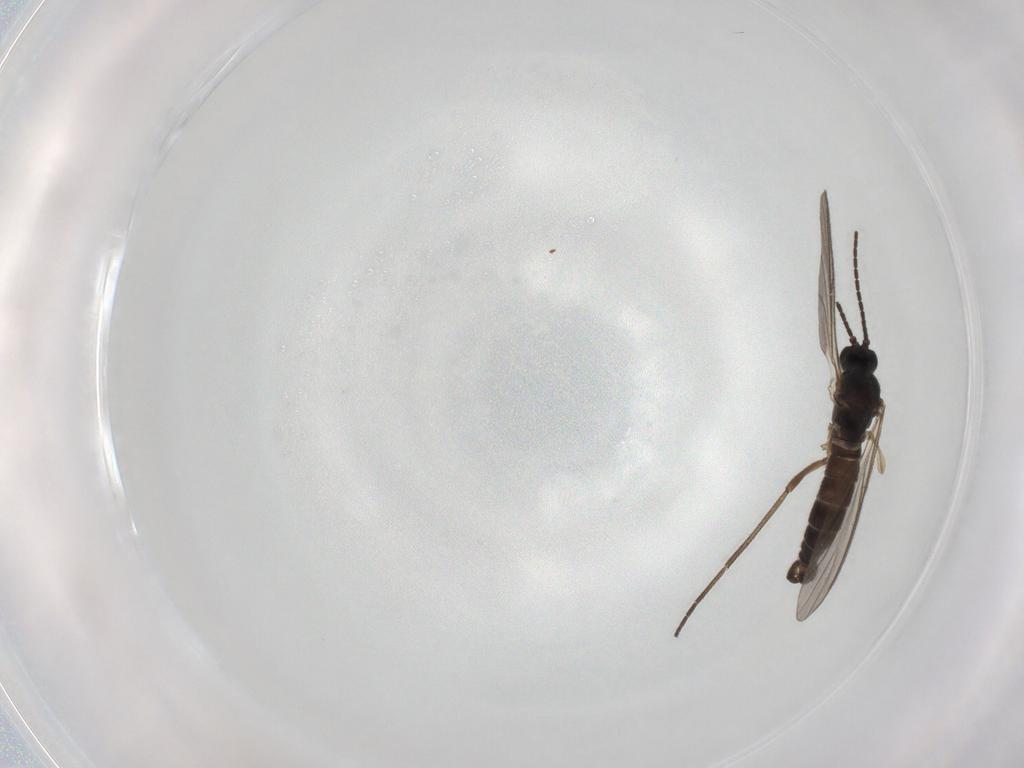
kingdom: Animalia
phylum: Arthropoda
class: Insecta
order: Diptera
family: Sciaridae
